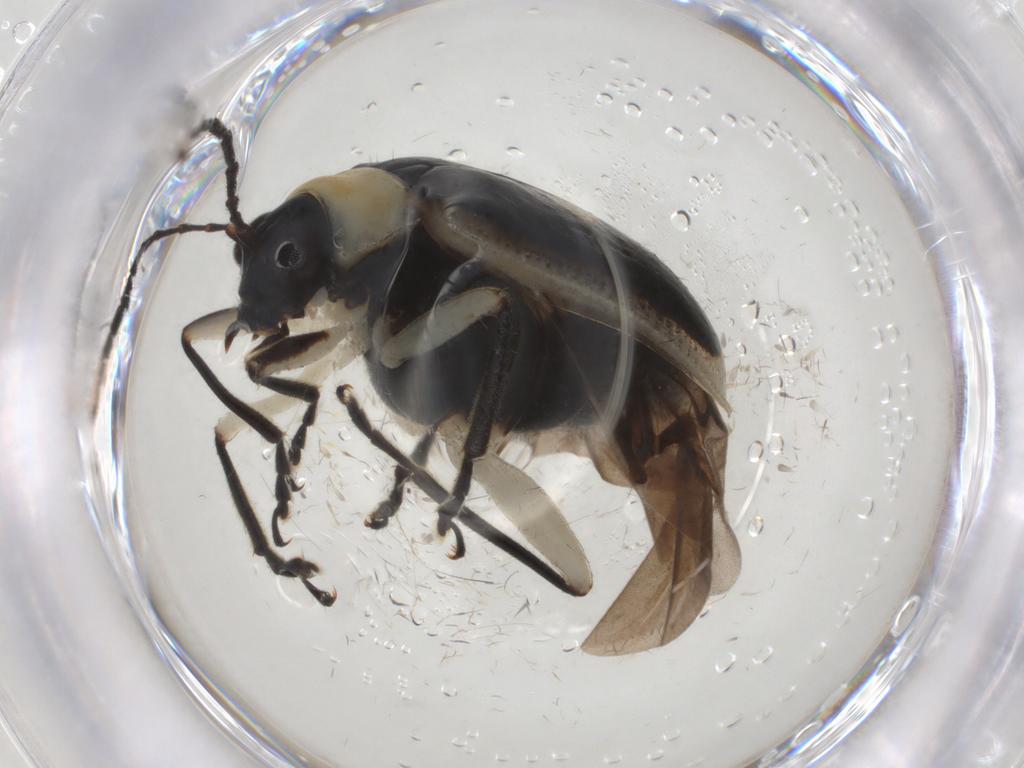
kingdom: Animalia
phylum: Arthropoda
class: Insecta
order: Coleoptera
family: Chrysomelidae
